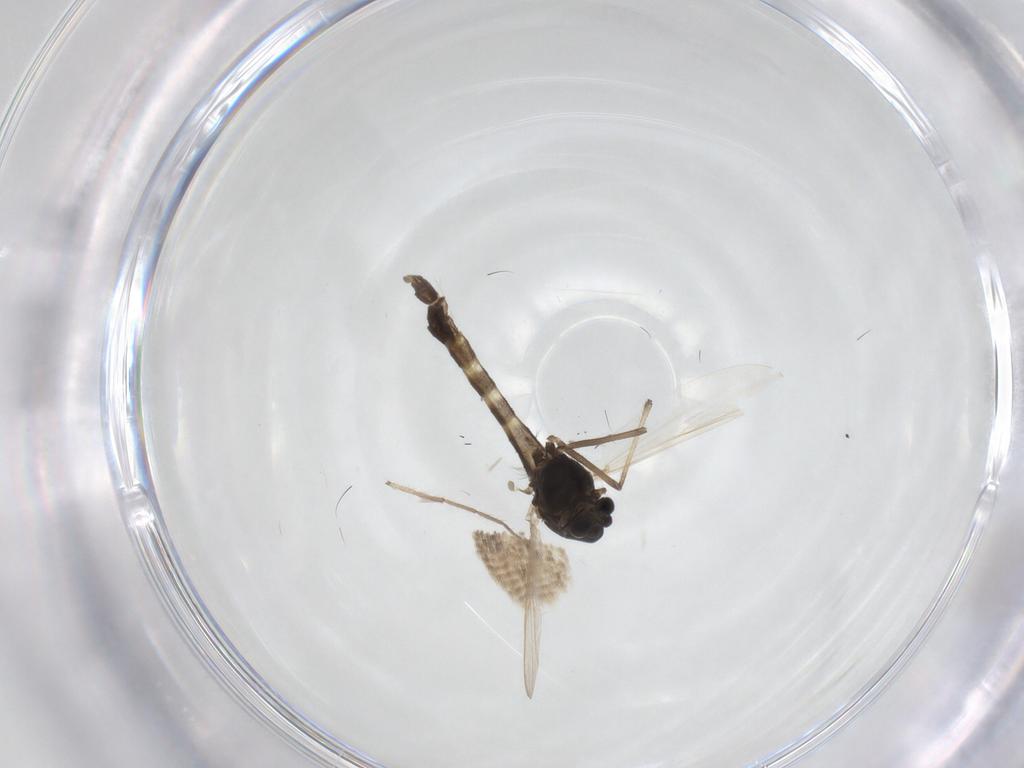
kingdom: Animalia
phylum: Arthropoda
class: Insecta
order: Diptera
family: Chironomidae
